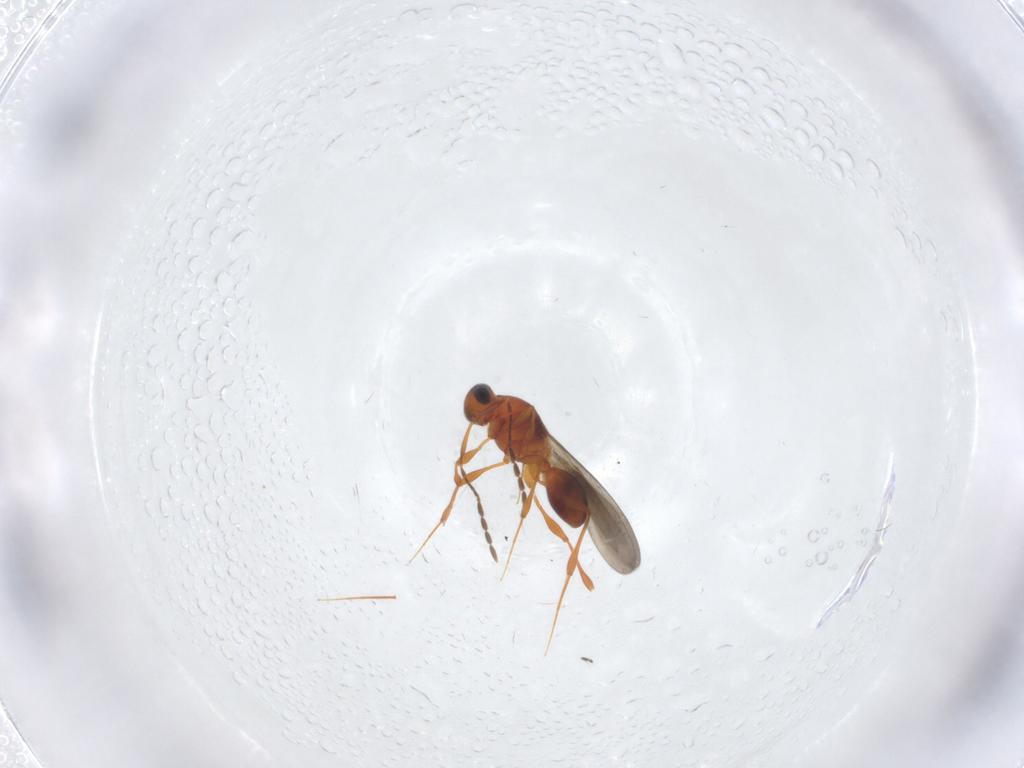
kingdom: Animalia
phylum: Arthropoda
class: Insecta
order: Hymenoptera
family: Platygastridae
